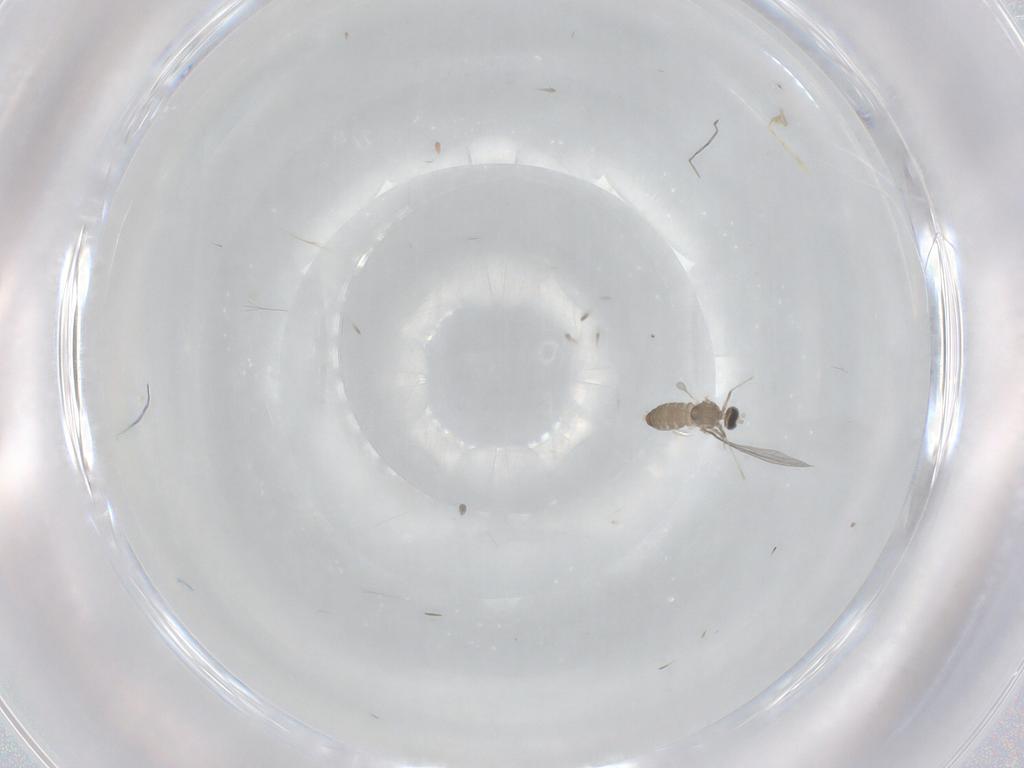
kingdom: Animalia
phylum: Arthropoda
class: Insecta
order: Diptera
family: Cecidomyiidae
